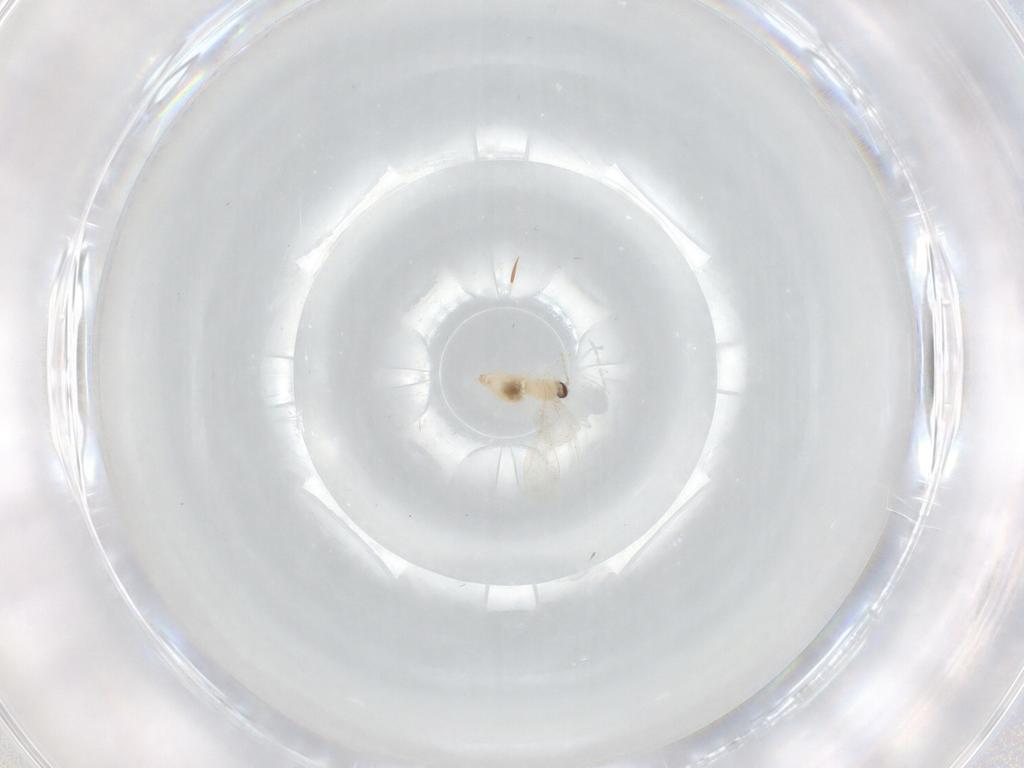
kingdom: Animalia
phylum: Arthropoda
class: Insecta
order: Diptera
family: Cecidomyiidae
